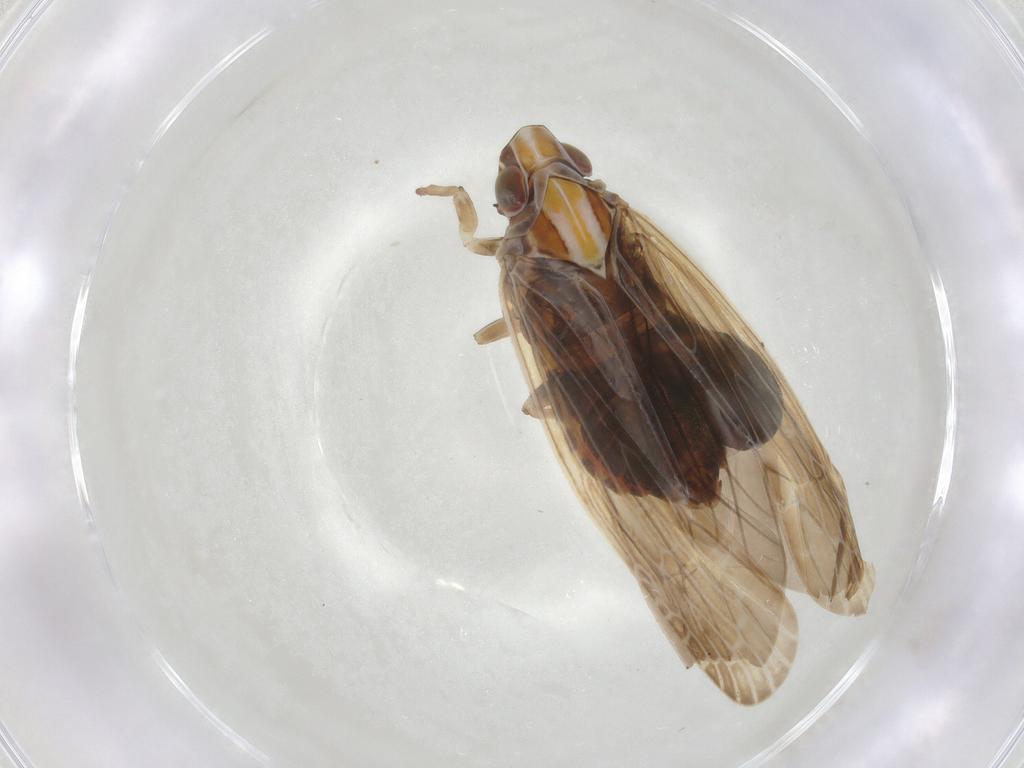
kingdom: Animalia
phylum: Arthropoda
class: Insecta
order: Hemiptera
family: Achilidae
